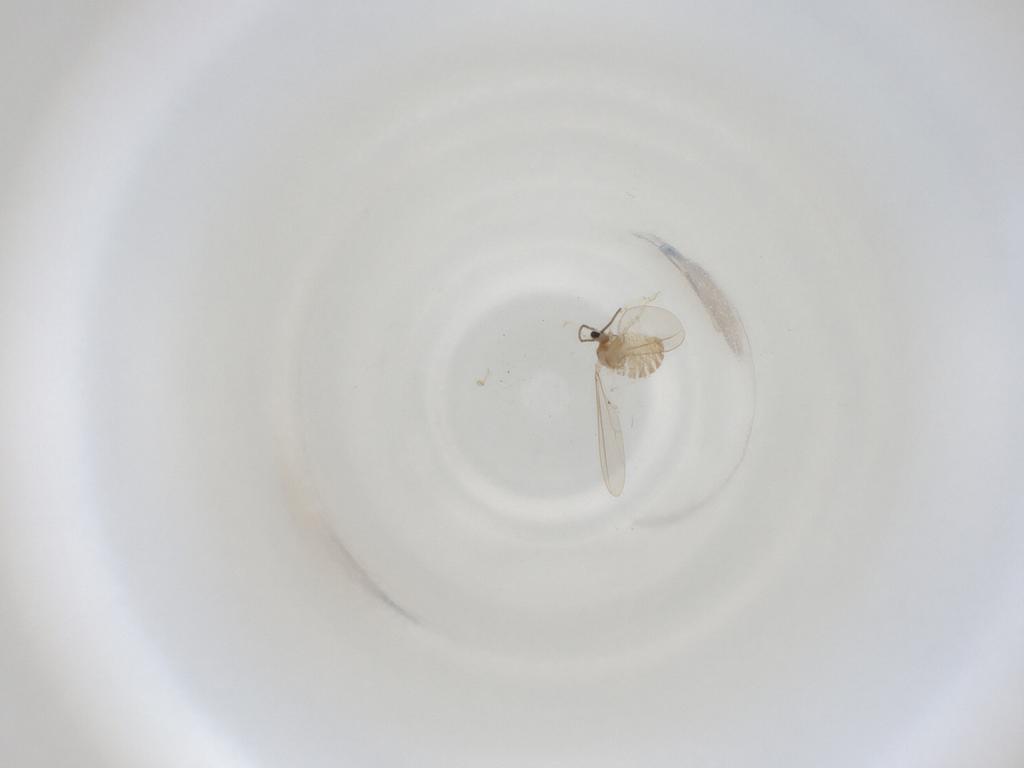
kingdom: Animalia
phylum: Arthropoda
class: Insecta
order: Diptera
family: Cecidomyiidae
